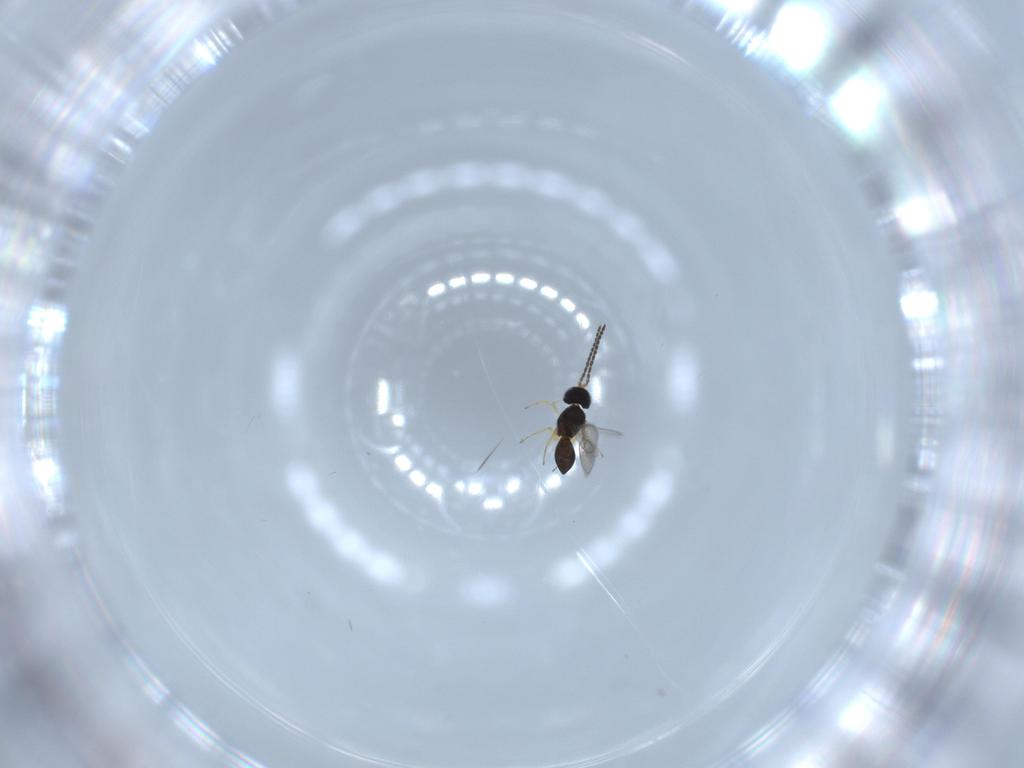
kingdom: Animalia
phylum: Arthropoda
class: Insecta
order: Hymenoptera
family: Scelionidae
